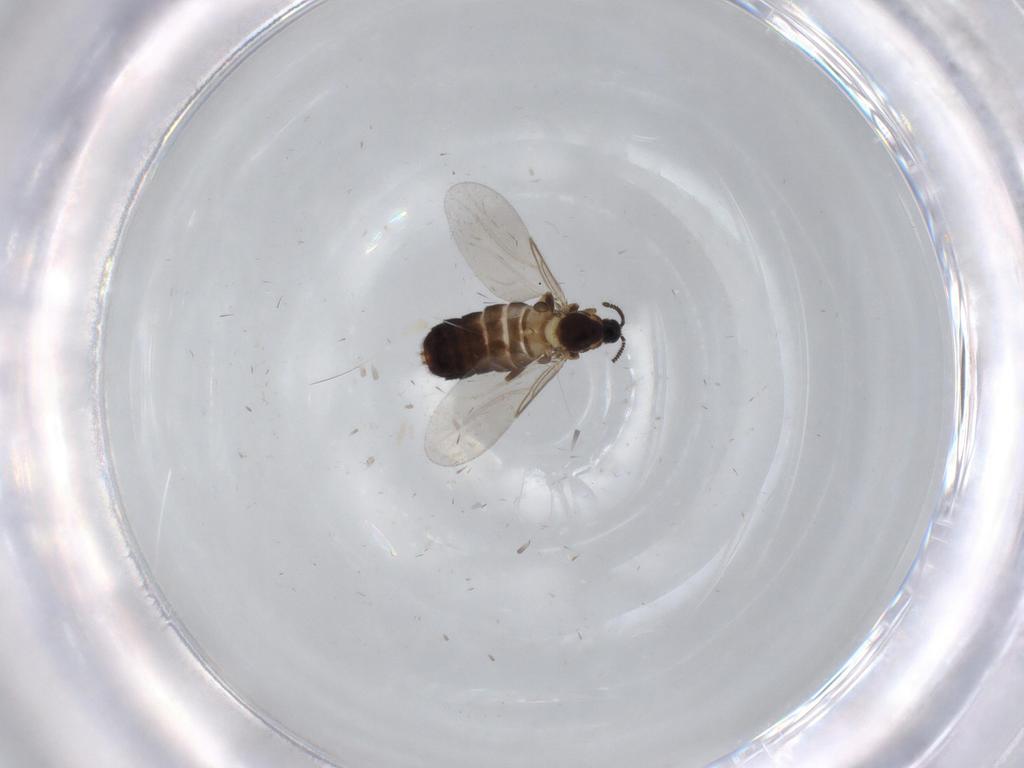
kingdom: Animalia
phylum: Arthropoda
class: Insecta
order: Diptera
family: Scatopsidae
